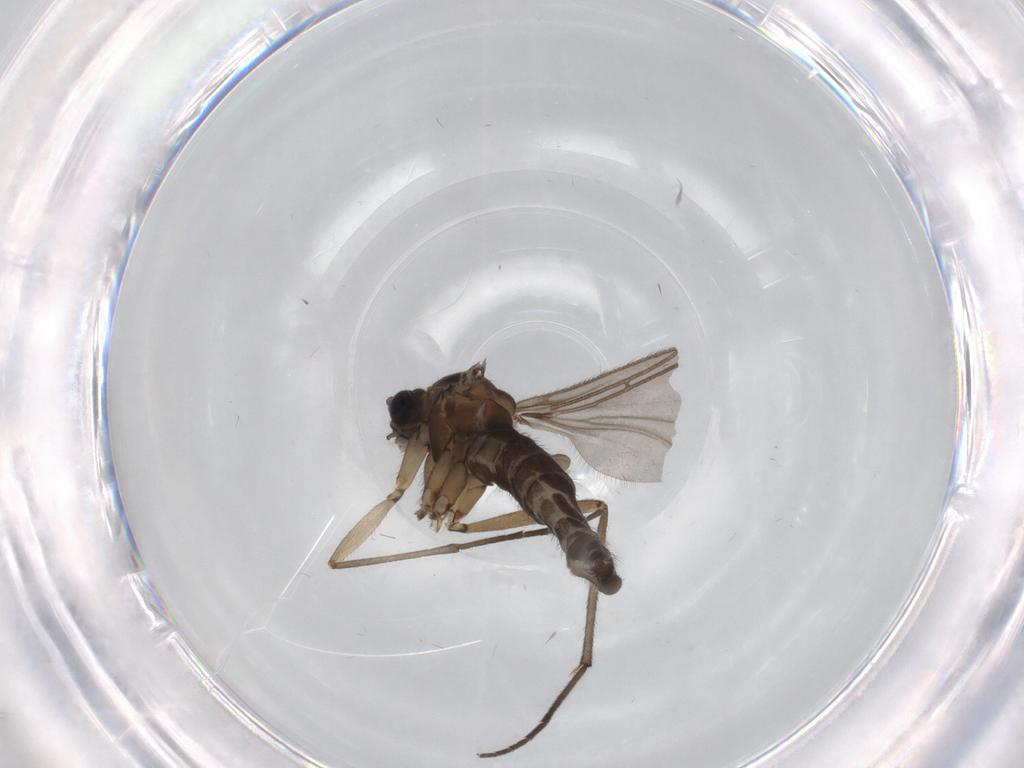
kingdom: Animalia
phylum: Arthropoda
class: Insecta
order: Diptera
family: Sciaridae
